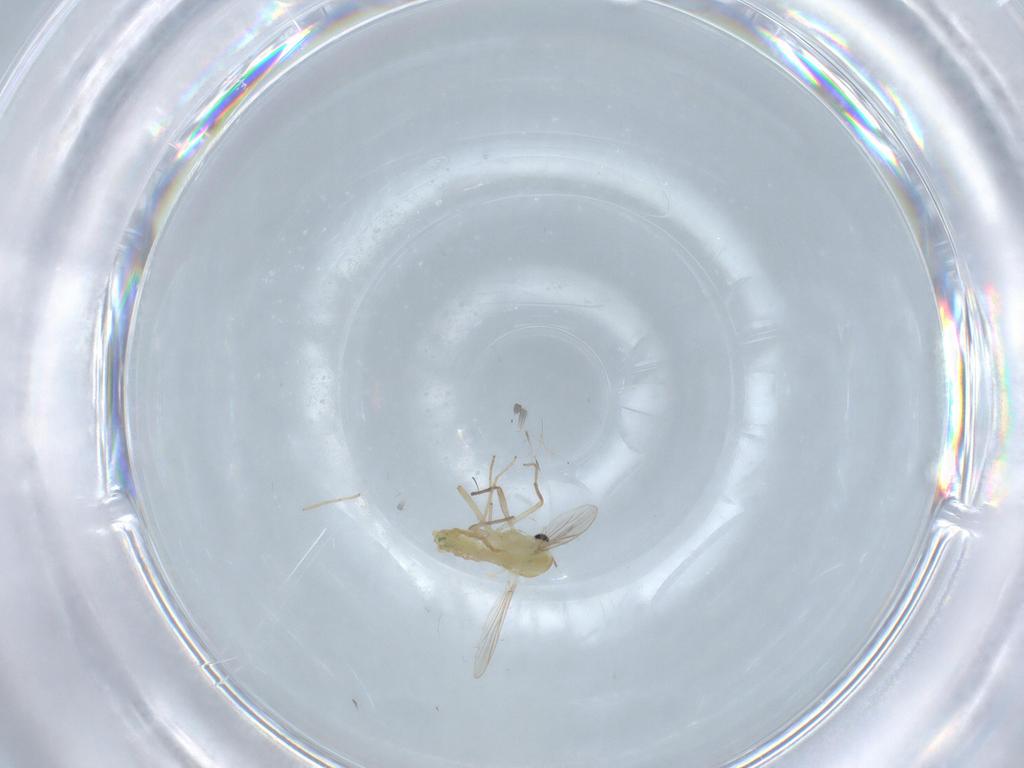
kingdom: Animalia
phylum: Arthropoda
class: Insecta
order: Diptera
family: Chironomidae
